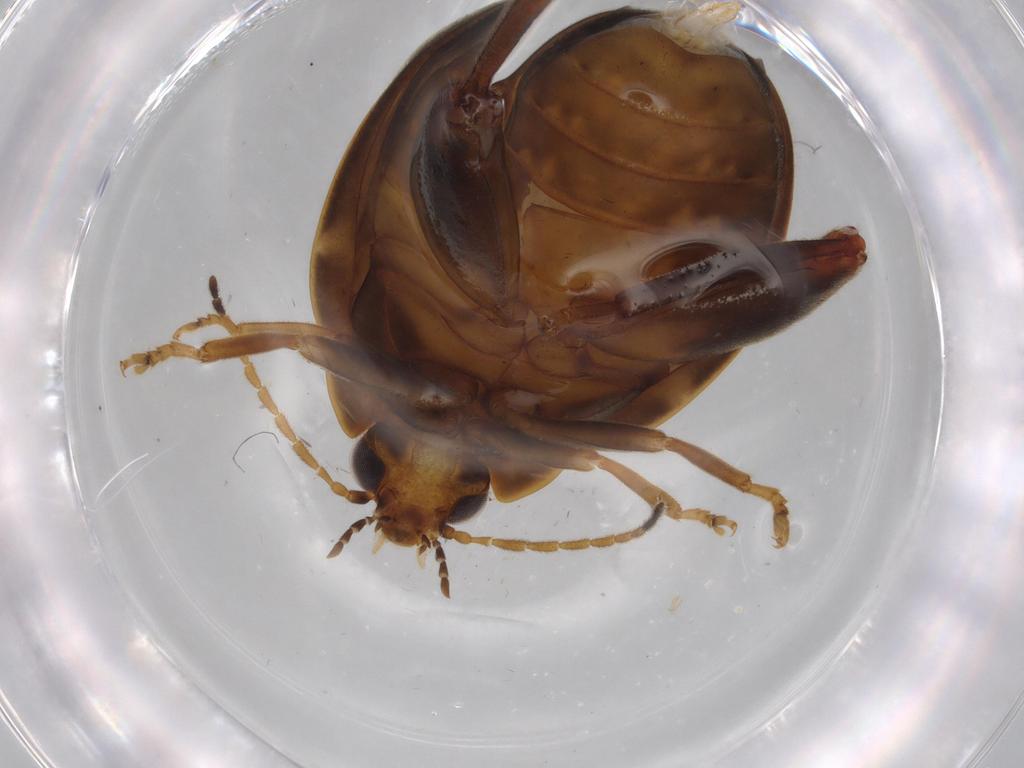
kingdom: Animalia
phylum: Arthropoda
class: Insecta
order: Coleoptera
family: Scirtidae
